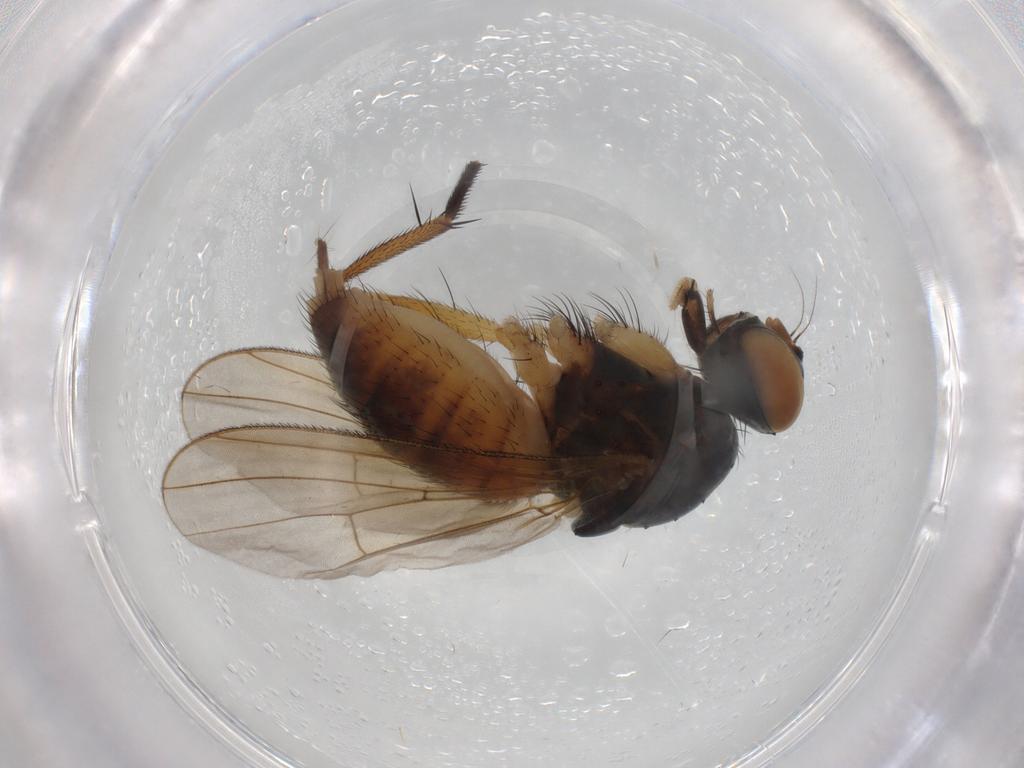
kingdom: Animalia
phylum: Arthropoda
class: Insecta
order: Diptera
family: Muscidae
